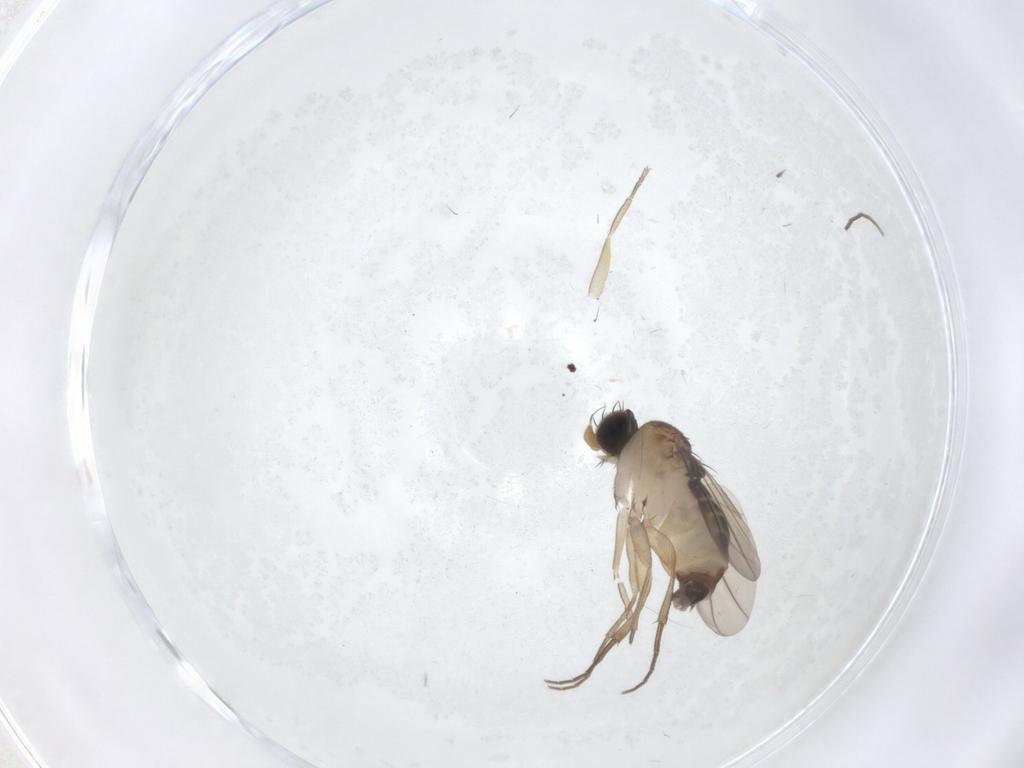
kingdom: Animalia
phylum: Arthropoda
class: Insecta
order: Diptera
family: Phoridae
